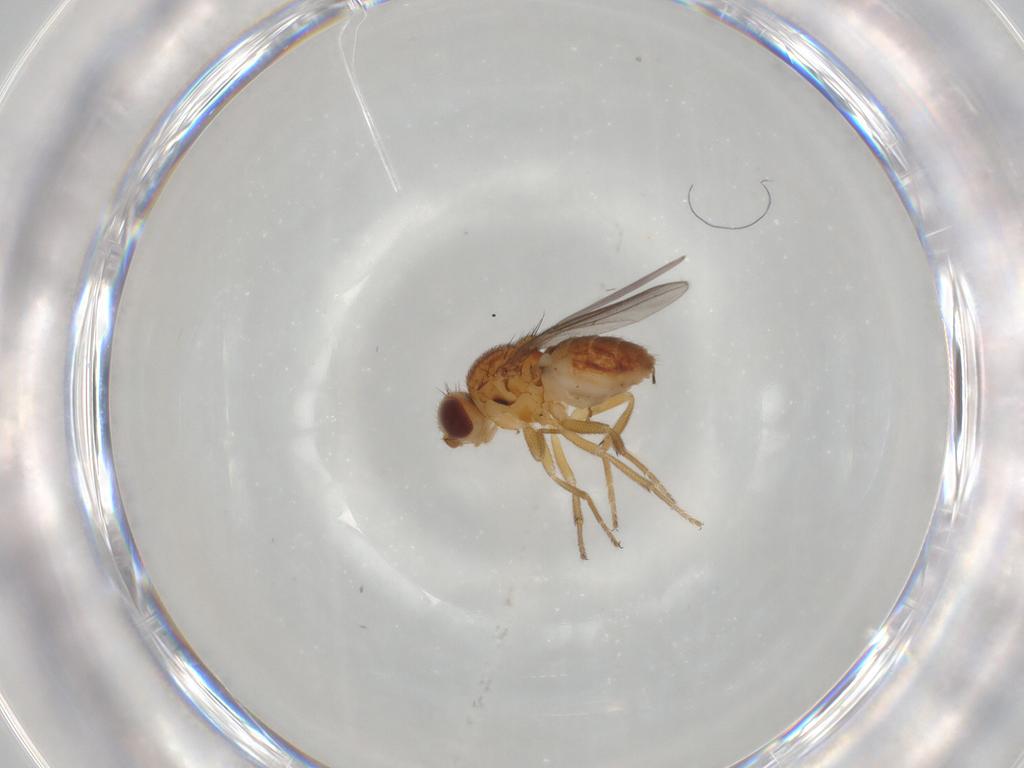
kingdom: Animalia
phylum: Arthropoda
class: Insecta
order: Diptera
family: Chloropidae
